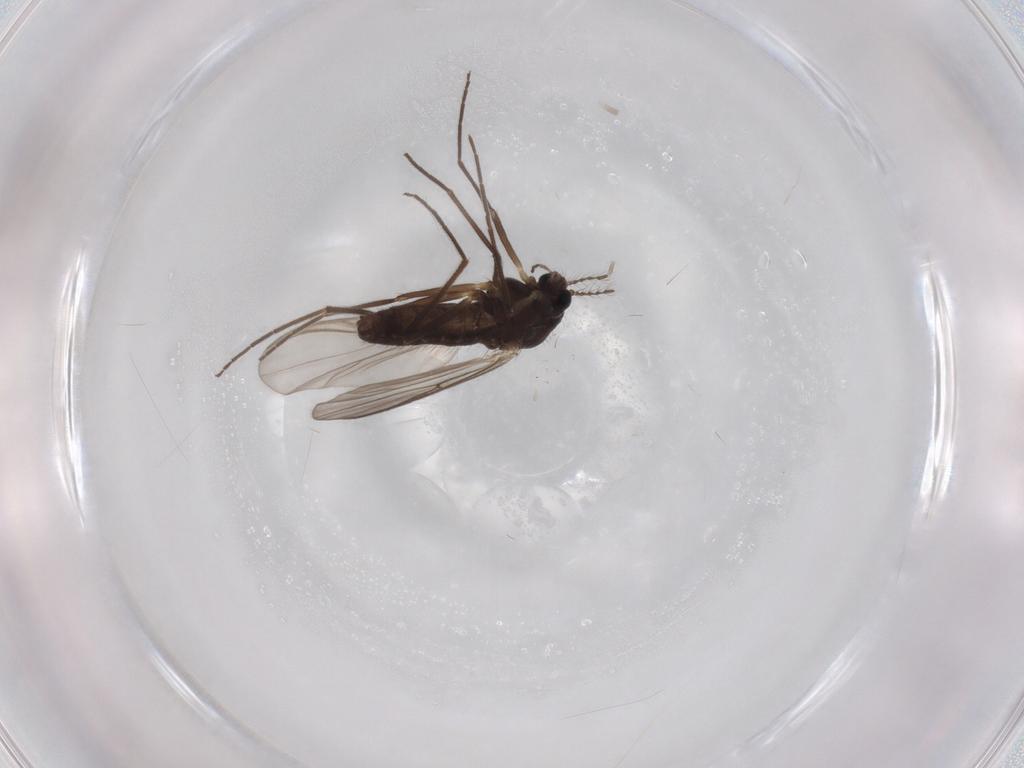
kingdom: Animalia
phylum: Arthropoda
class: Insecta
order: Diptera
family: Chironomidae
